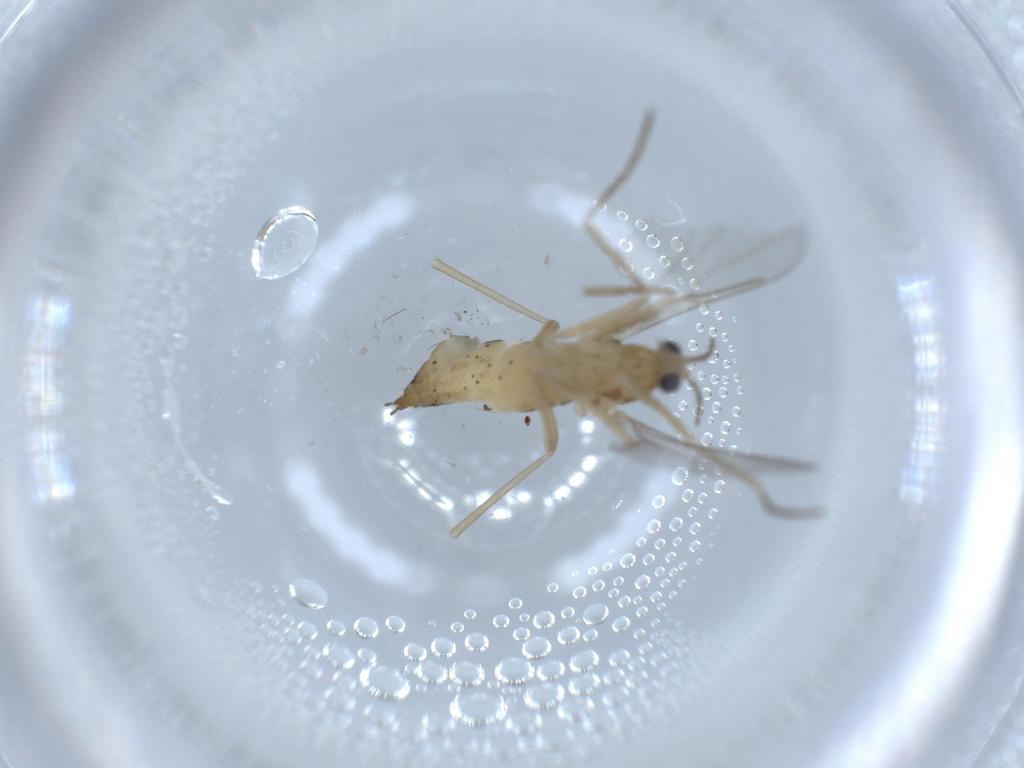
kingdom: Animalia
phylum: Arthropoda
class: Insecta
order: Diptera
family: Cecidomyiidae
